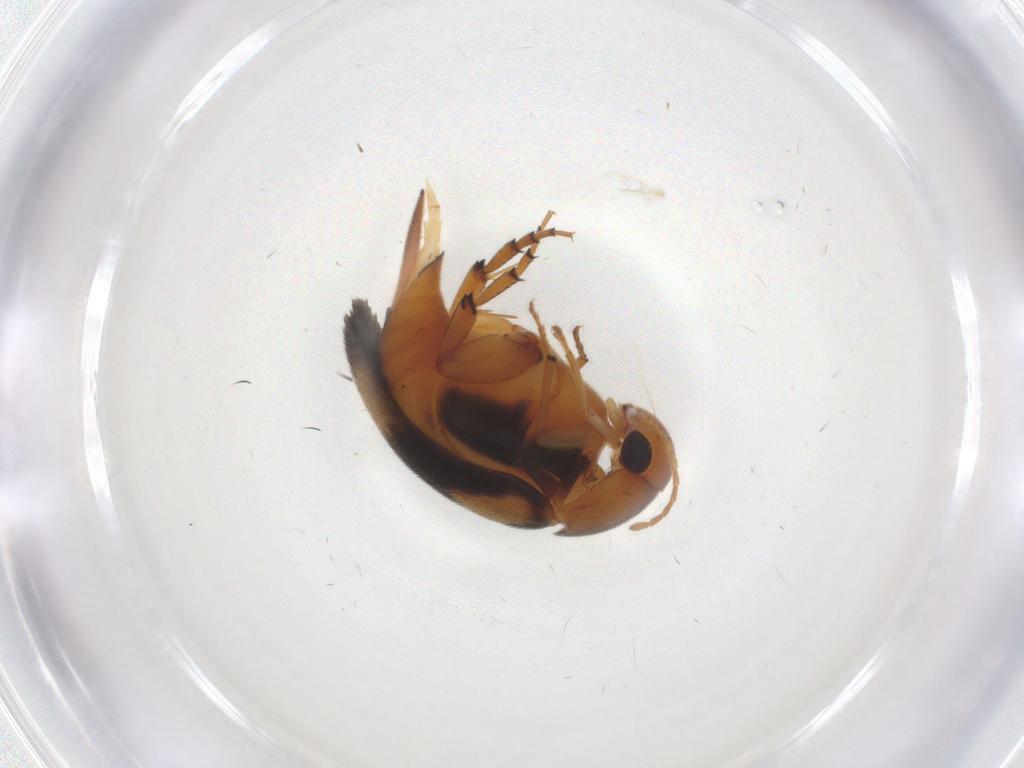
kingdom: Animalia
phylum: Arthropoda
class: Insecta
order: Coleoptera
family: Mordellidae
